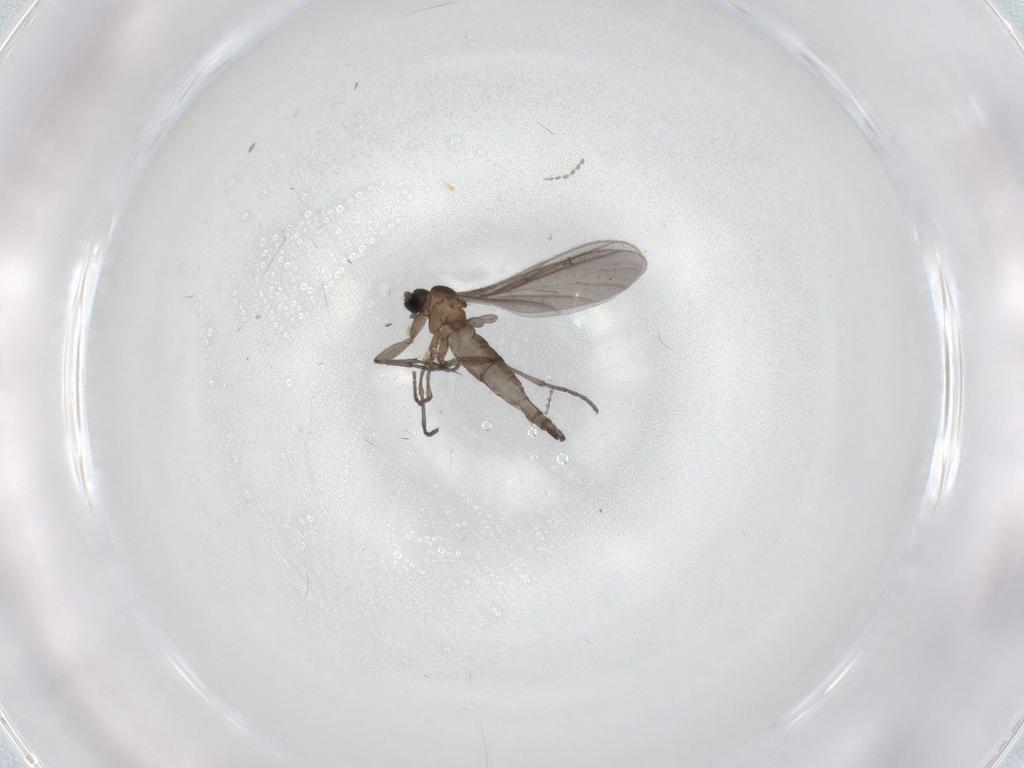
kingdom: Animalia
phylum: Arthropoda
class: Insecta
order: Diptera
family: Sciaridae
